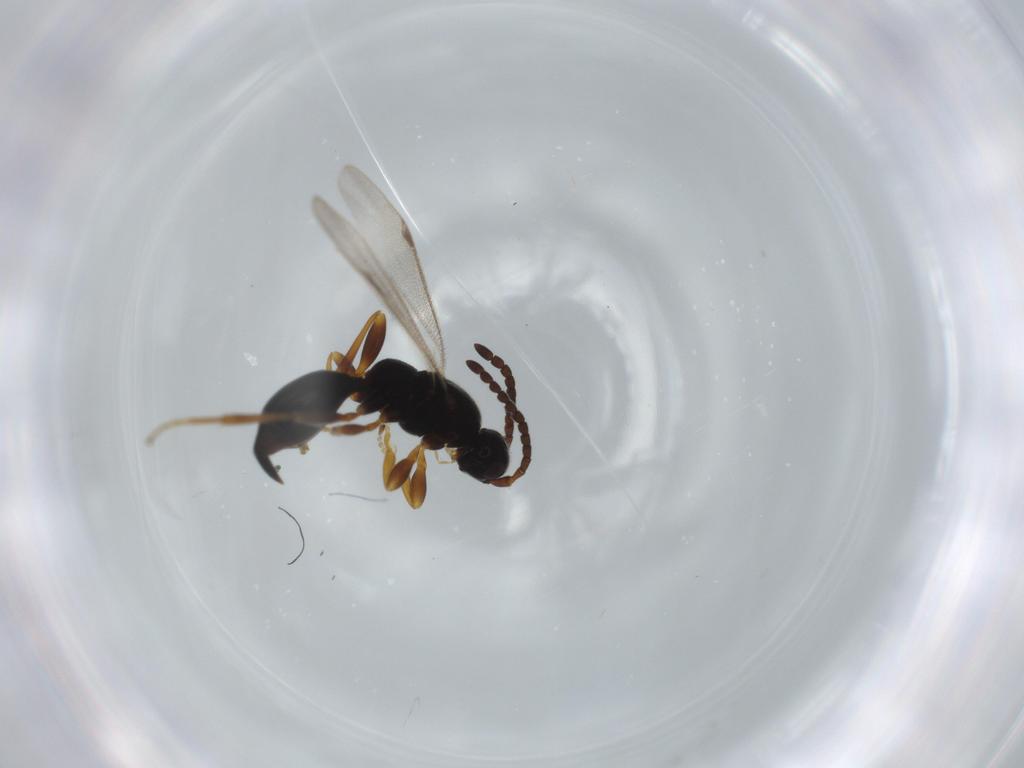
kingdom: Animalia
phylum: Arthropoda
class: Insecta
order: Hymenoptera
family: Proctotrupidae
